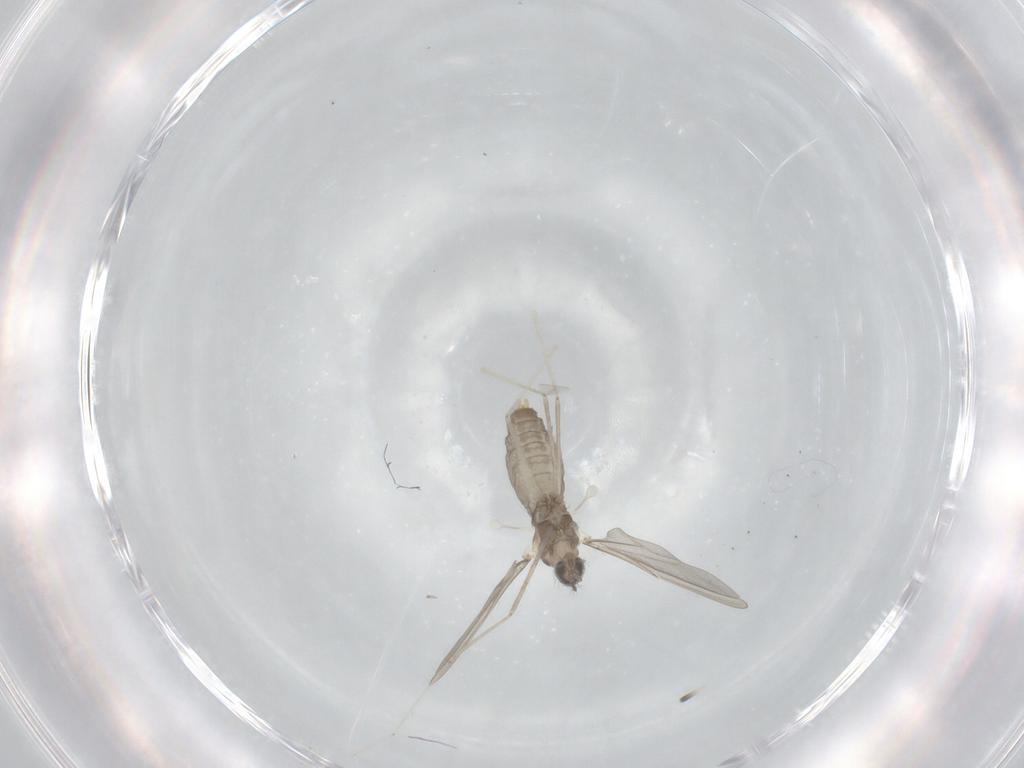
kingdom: Animalia
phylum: Arthropoda
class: Insecta
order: Diptera
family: Cecidomyiidae
